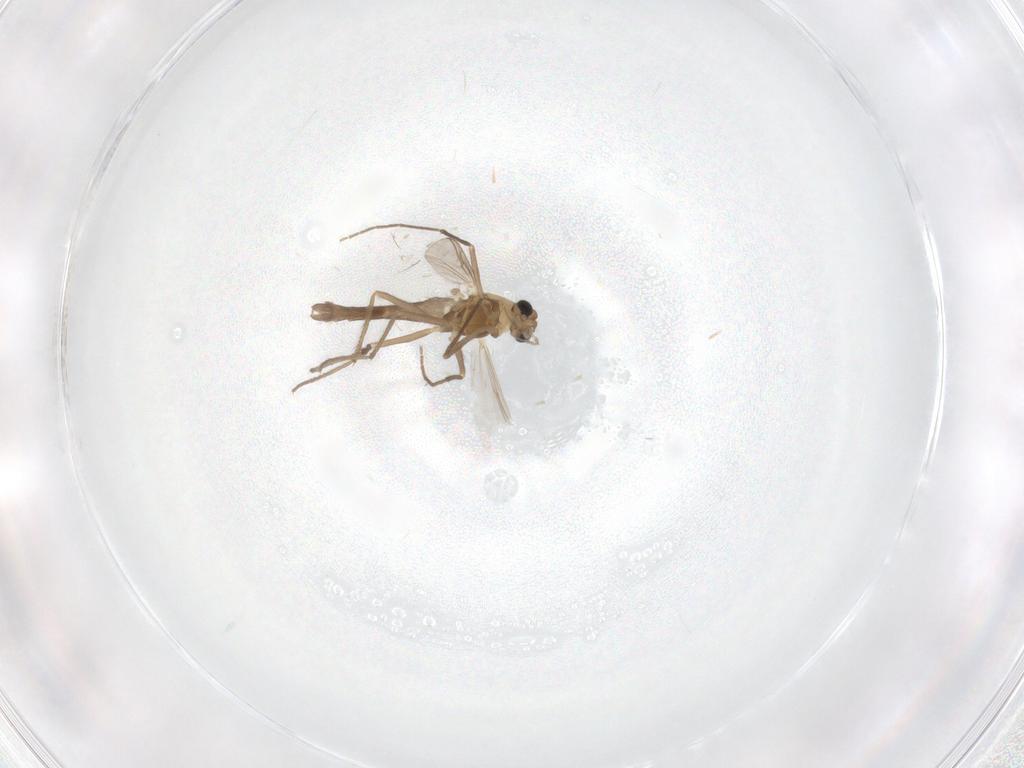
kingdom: Animalia
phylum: Arthropoda
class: Insecta
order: Diptera
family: Chironomidae
